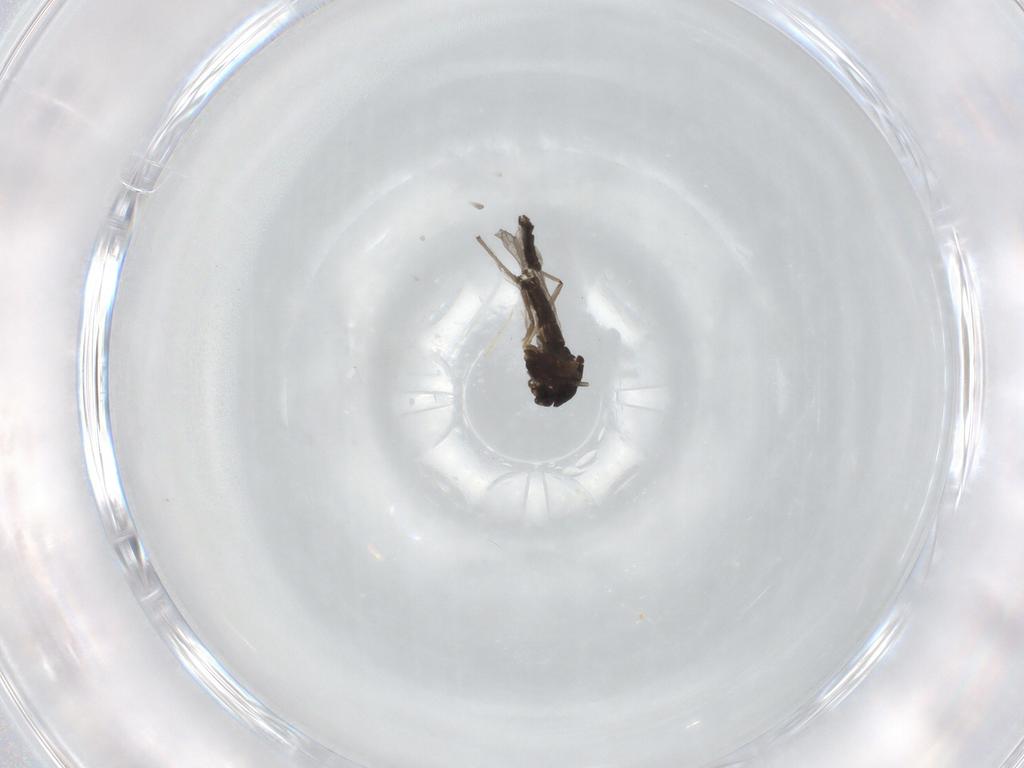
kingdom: Animalia
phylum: Arthropoda
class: Insecta
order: Diptera
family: Chironomidae
